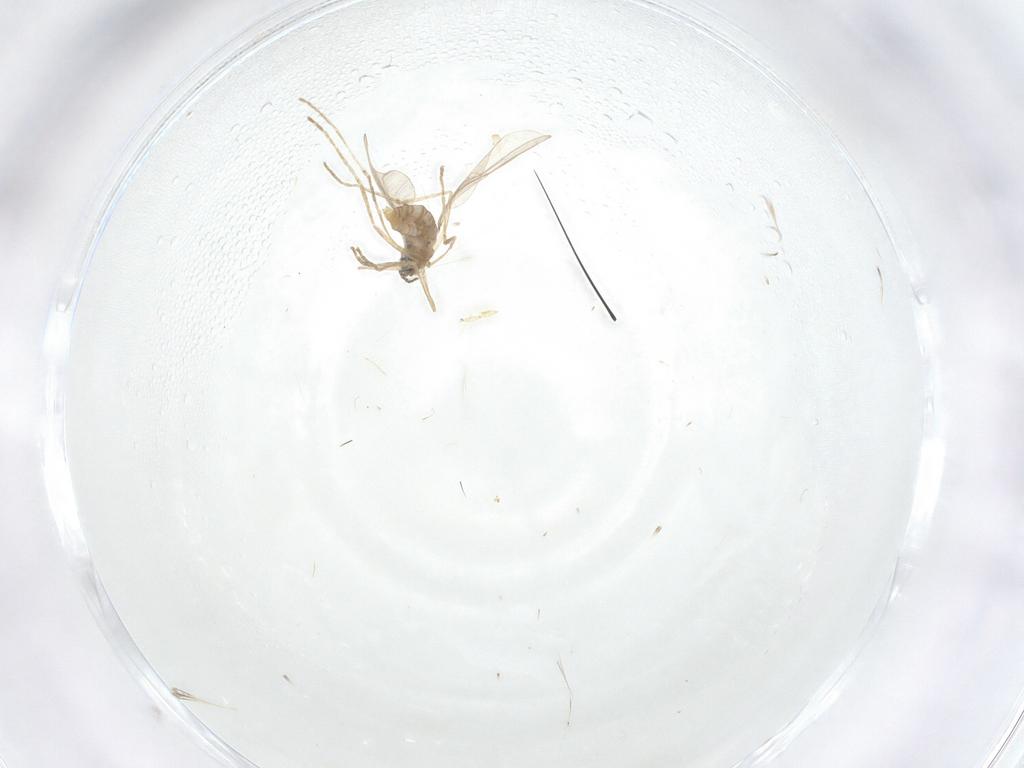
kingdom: Animalia
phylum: Arthropoda
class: Insecta
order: Diptera
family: Cecidomyiidae
